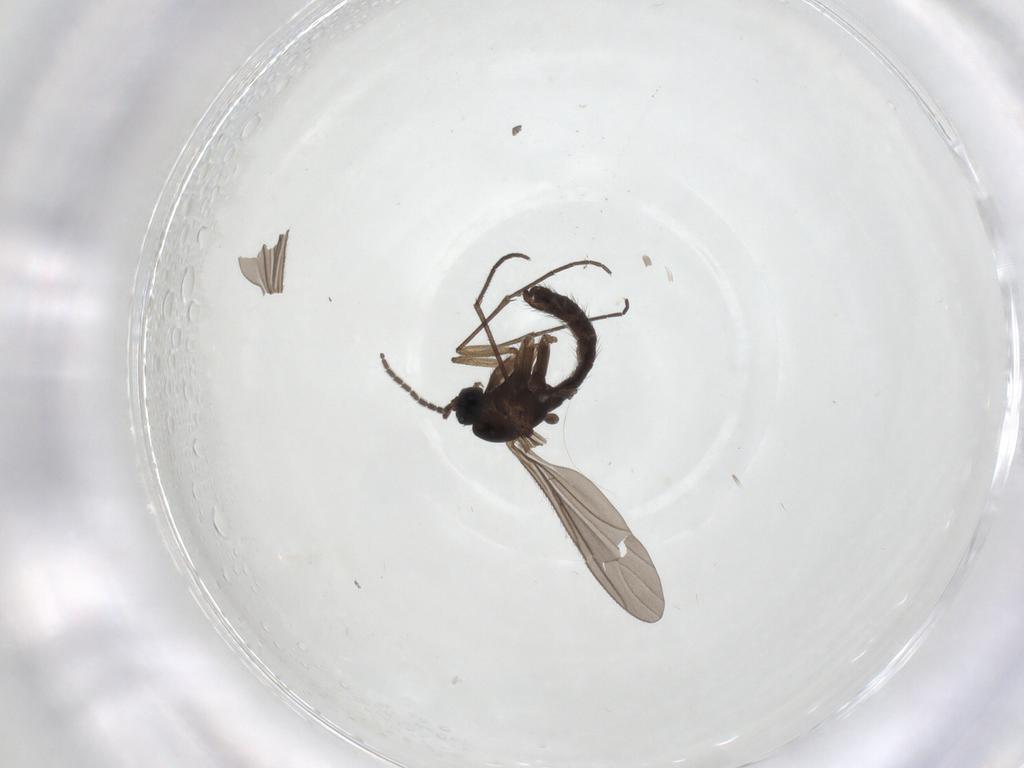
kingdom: Animalia
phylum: Arthropoda
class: Insecta
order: Diptera
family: Sciaridae
